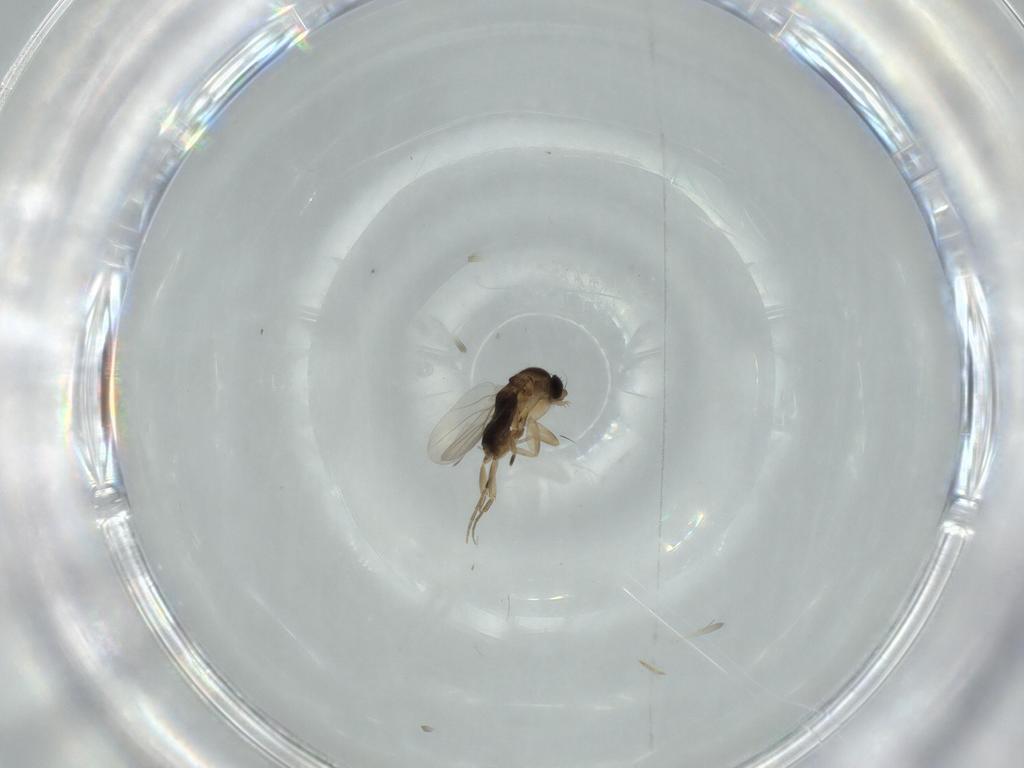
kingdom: Animalia
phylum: Arthropoda
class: Insecta
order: Diptera
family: Phoridae
